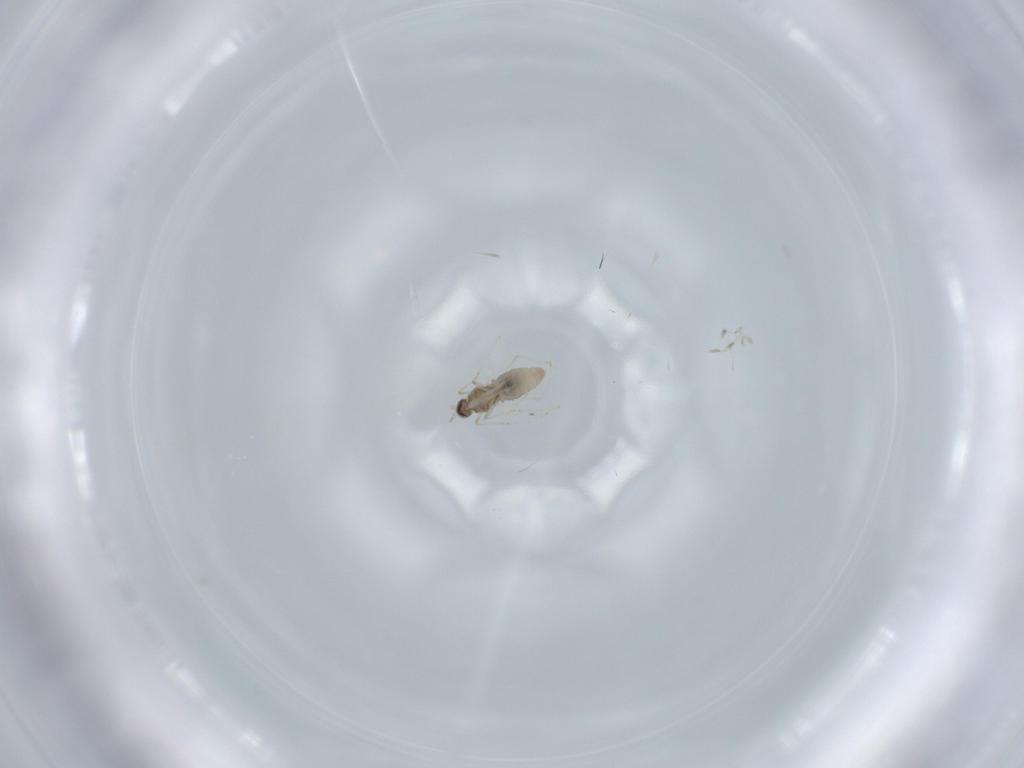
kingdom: Animalia
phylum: Arthropoda
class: Insecta
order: Diptera
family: Cecidomyiidae
